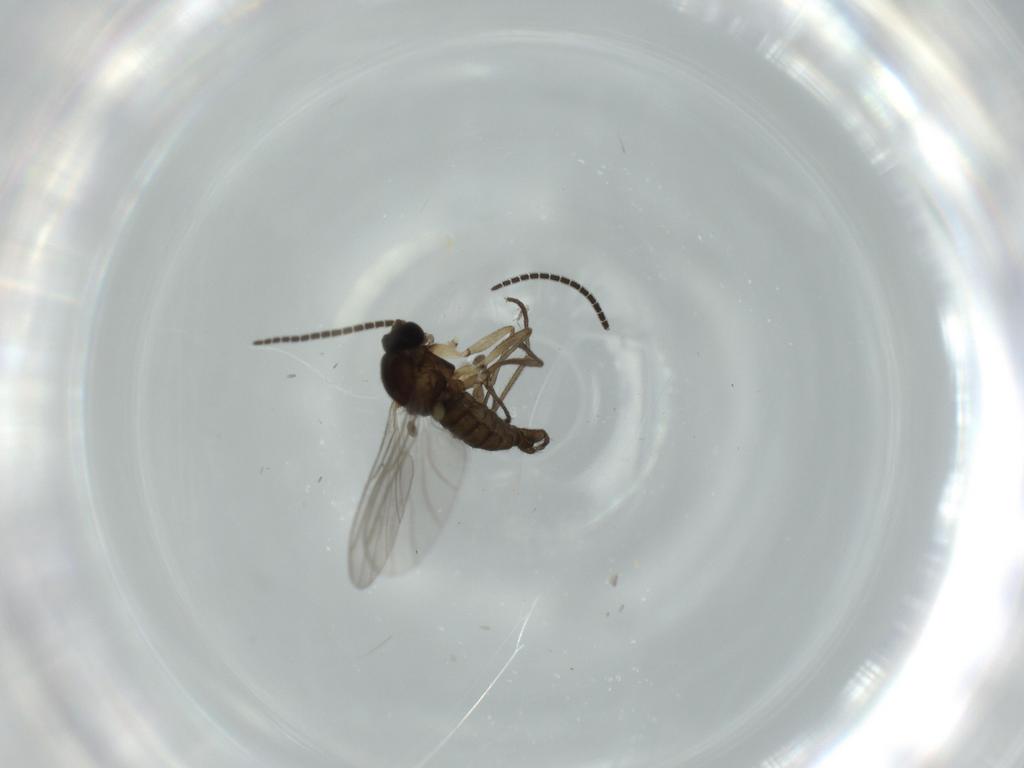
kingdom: Animalia
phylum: Arthropoda
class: Insecta
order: Diptera
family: Sciaridae
